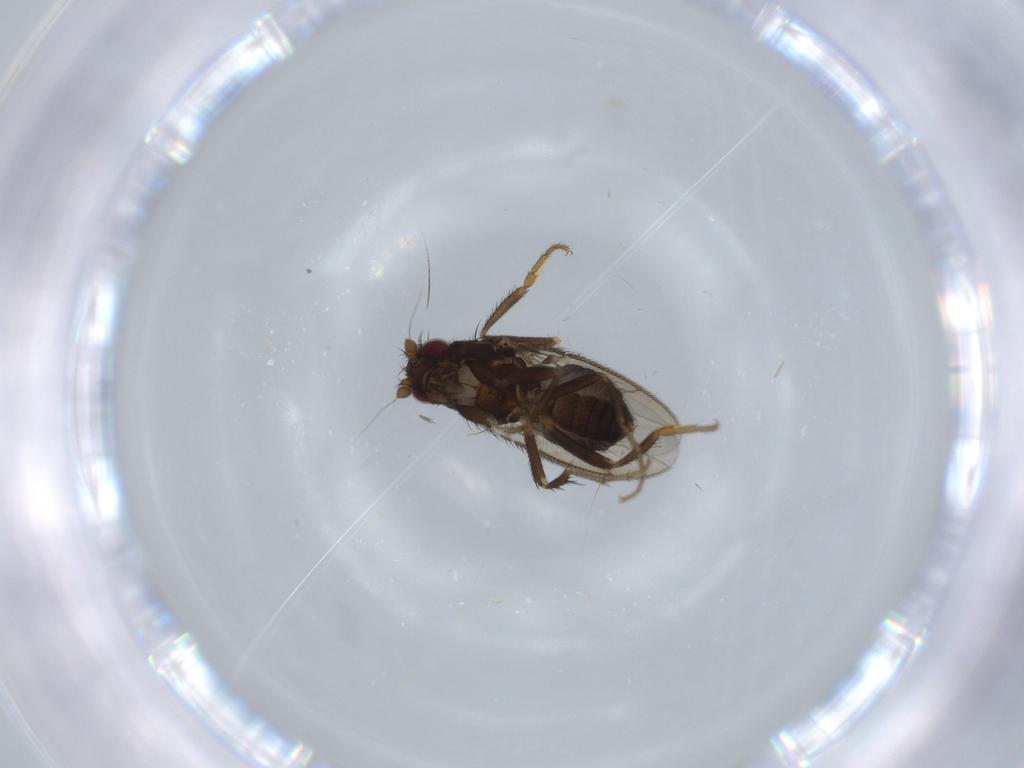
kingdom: Animalia
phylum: Arthropoda
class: Insecta
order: Diptera
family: Sphaeroceridae
